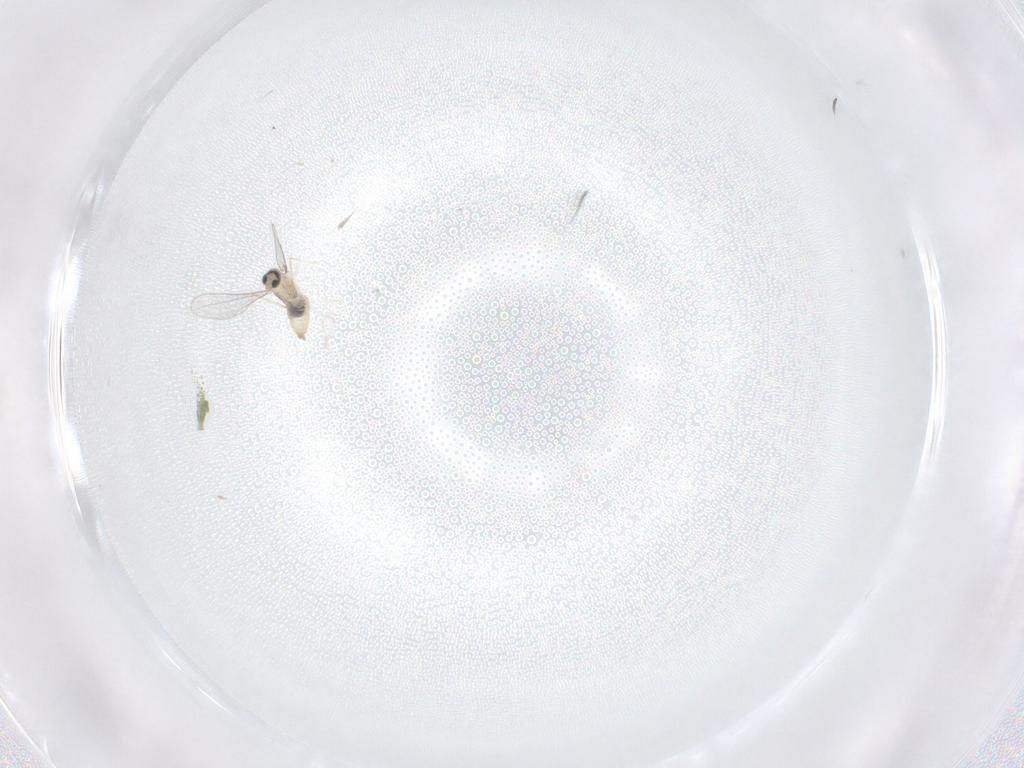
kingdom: Animalia
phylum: Arthropoda
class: Insecta
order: Diptera
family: Cecidomyiidae
